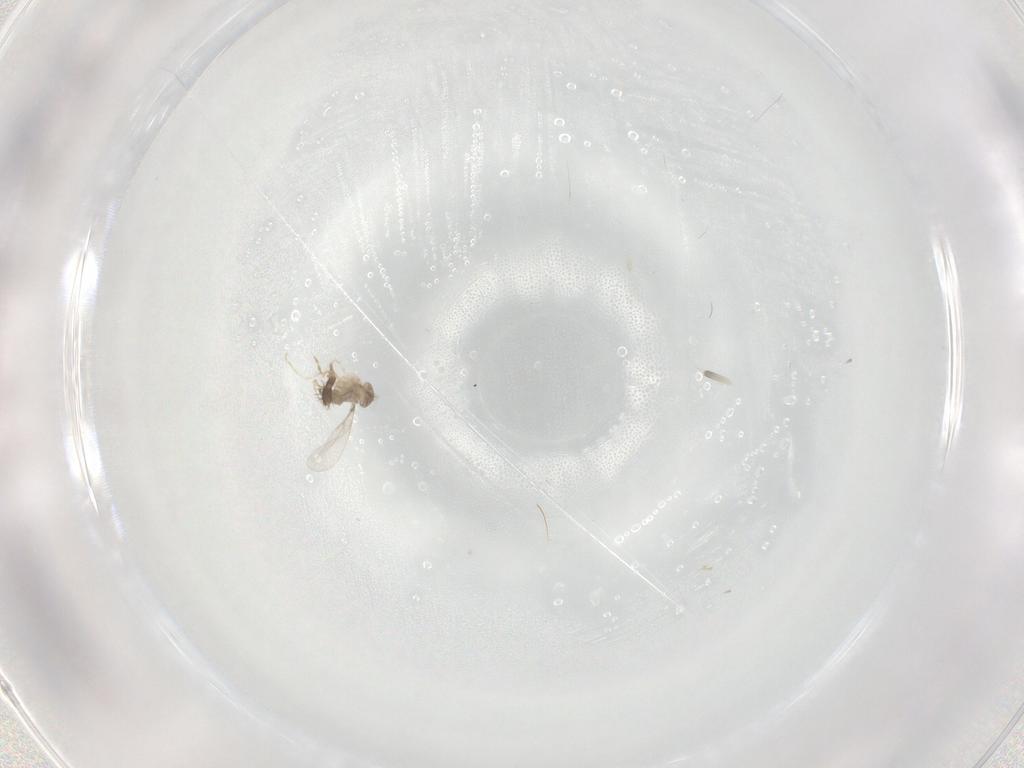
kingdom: Animalia
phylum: Arthropoda
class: Insecta
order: Diptera
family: Cecidomyiidae
